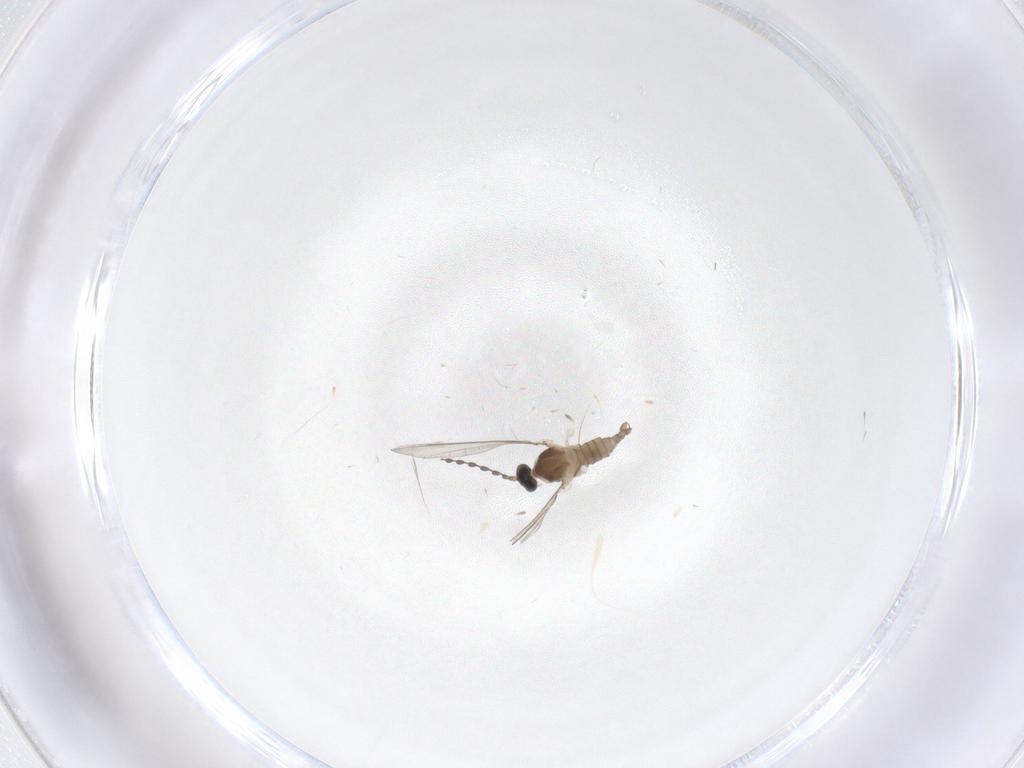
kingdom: Animalia
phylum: Arthropoda
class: Insecta
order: Diptera
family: Cecidomyiidae
